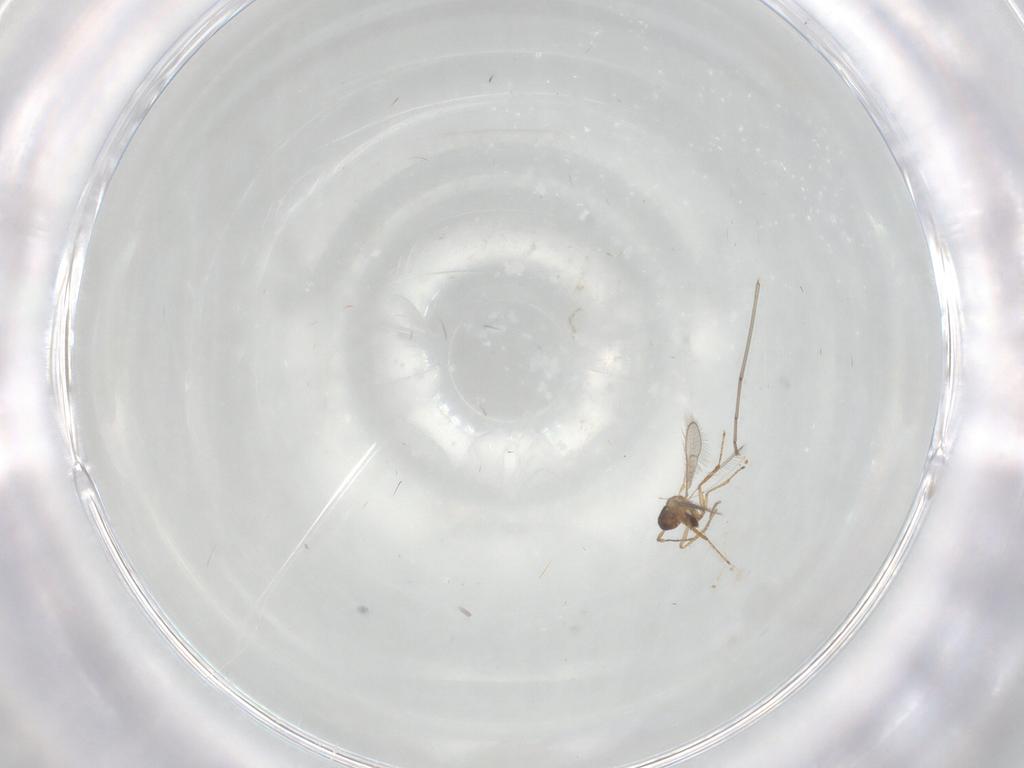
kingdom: Animalia
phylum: Arthropoda
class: Insecta
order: Hymenoptera
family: Mymaridae
